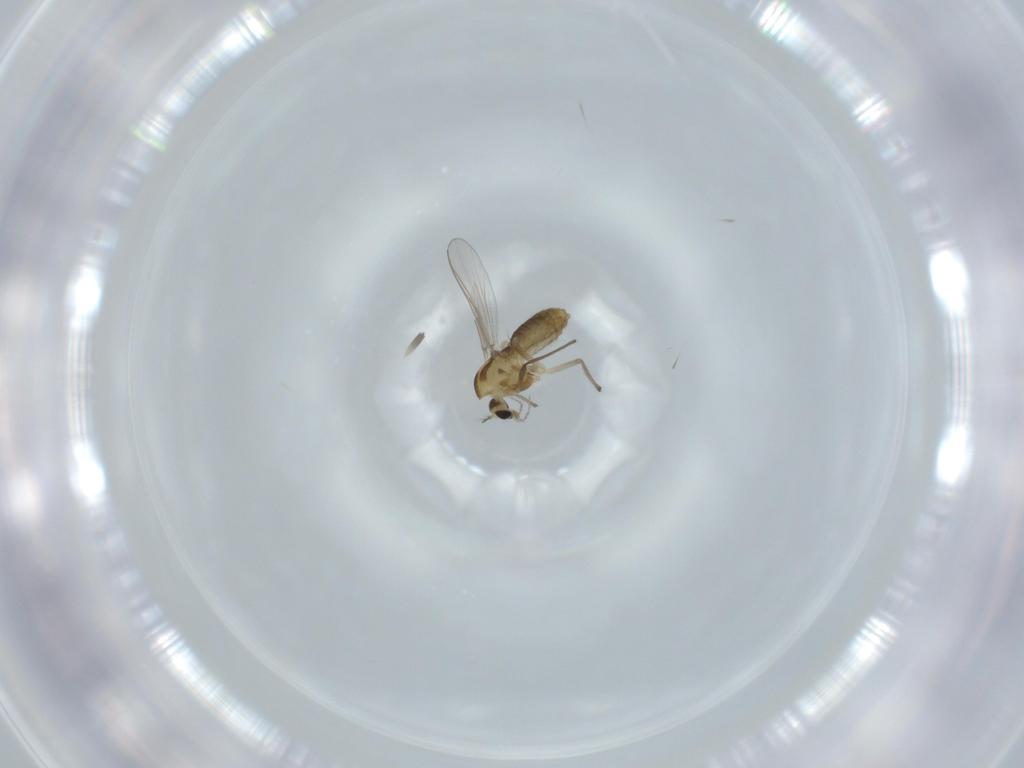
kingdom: Animalia
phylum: Arthropoda
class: Insecta
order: Diptera
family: Chironomidae
